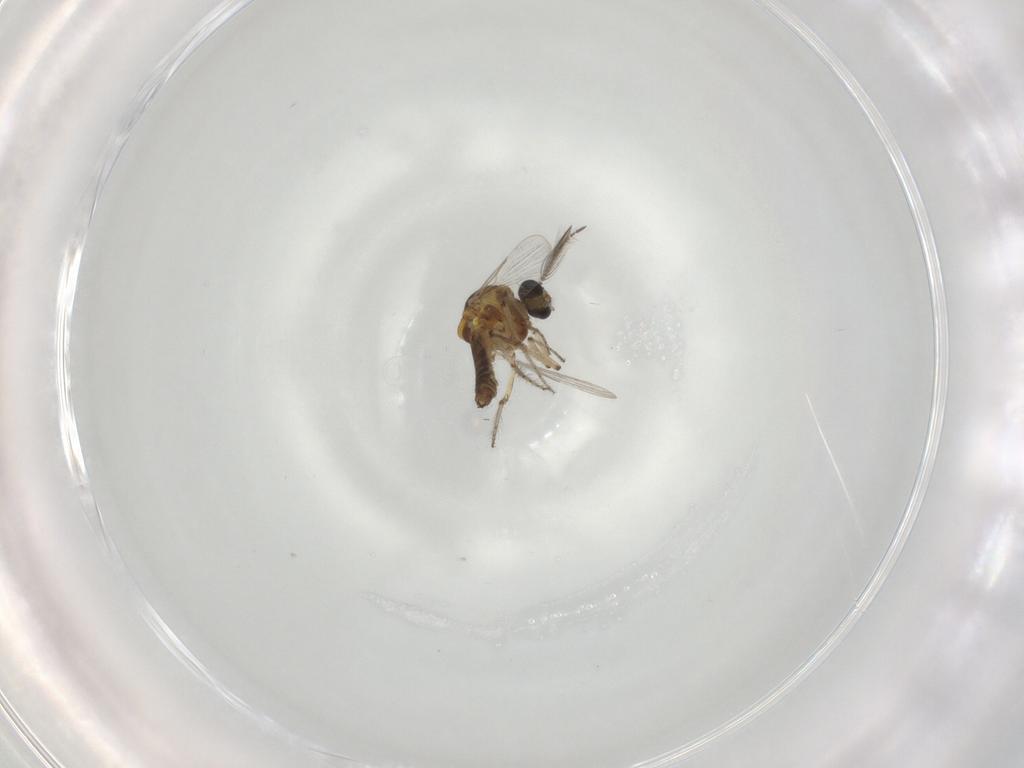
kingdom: Animalia
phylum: Arthropoda
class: Insecta
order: Diptera
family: Ceratopogonidae
